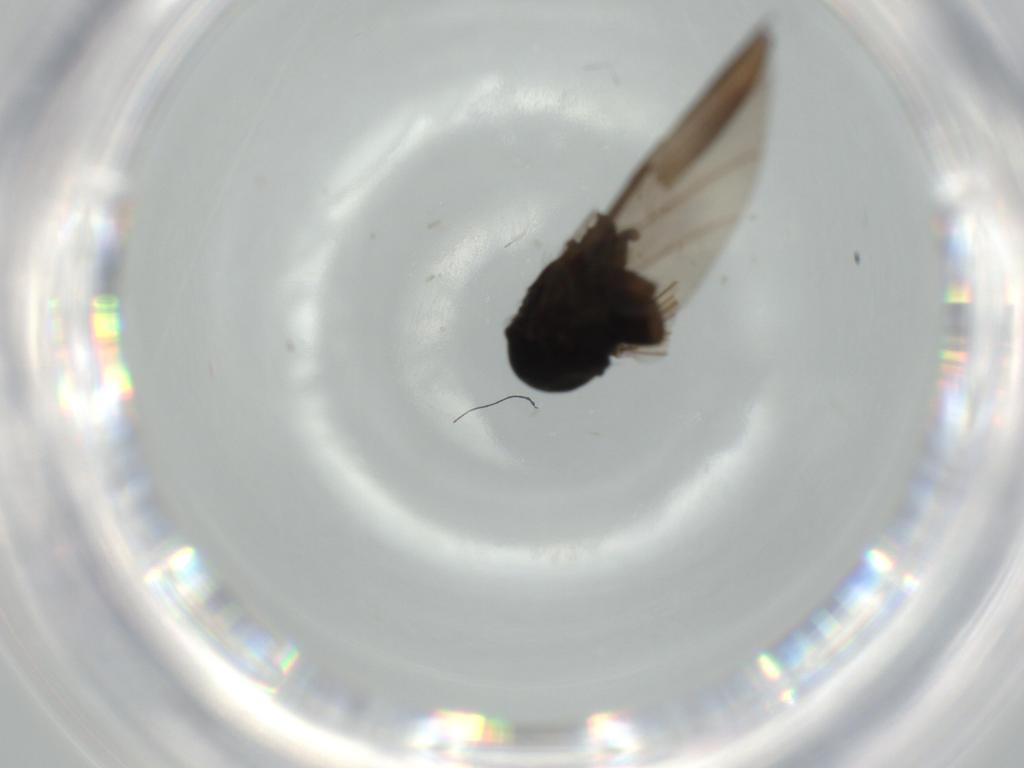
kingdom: Animalia
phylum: Arthropoda
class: Insecta
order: Diptera
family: Empididae
